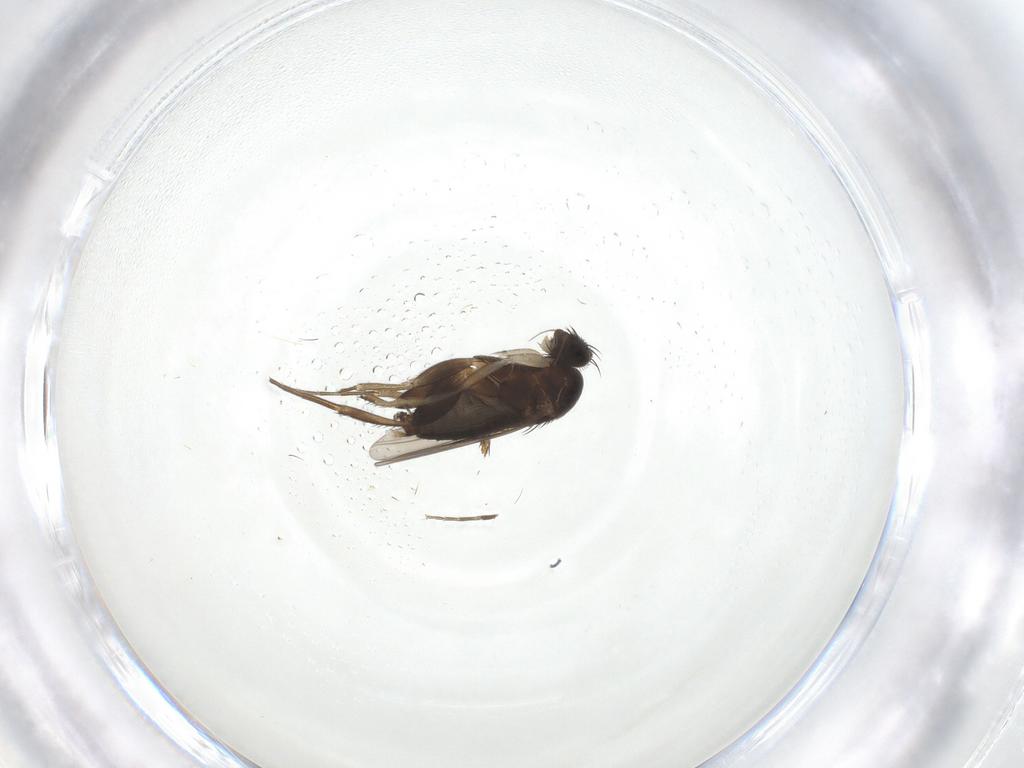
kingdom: Animalia
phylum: Arthropoda
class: Insecta
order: Diptera
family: Phoridae
